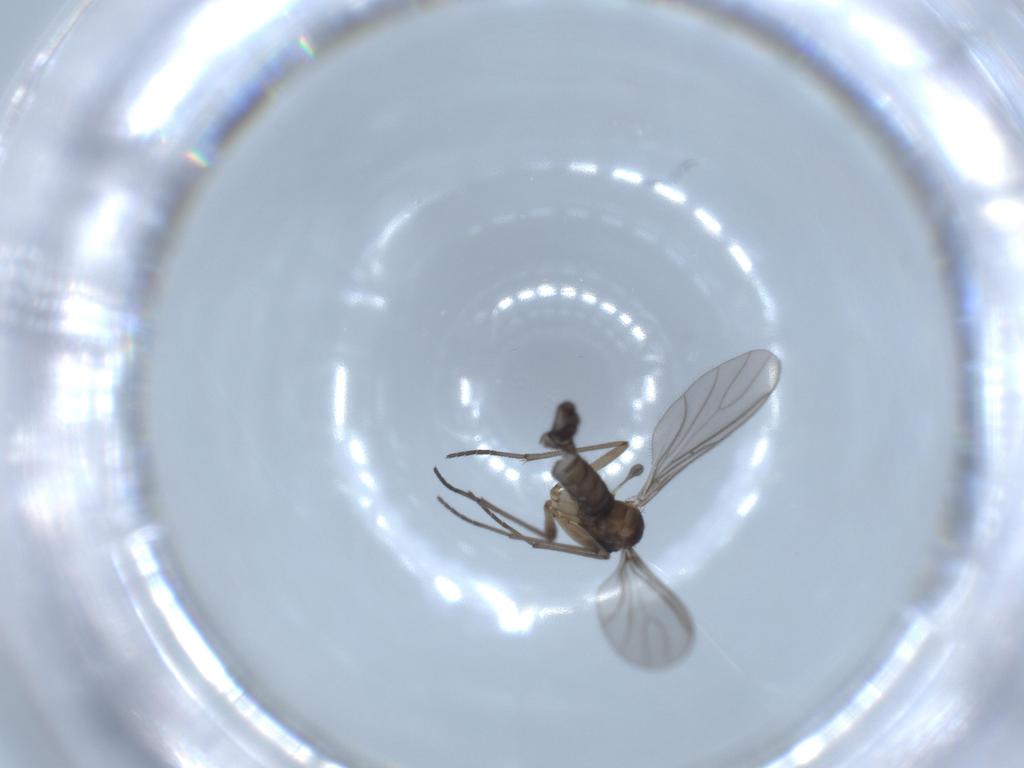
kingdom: Animalia
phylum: Arthropoda
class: Insecta
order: Diptera
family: Sciaridae
